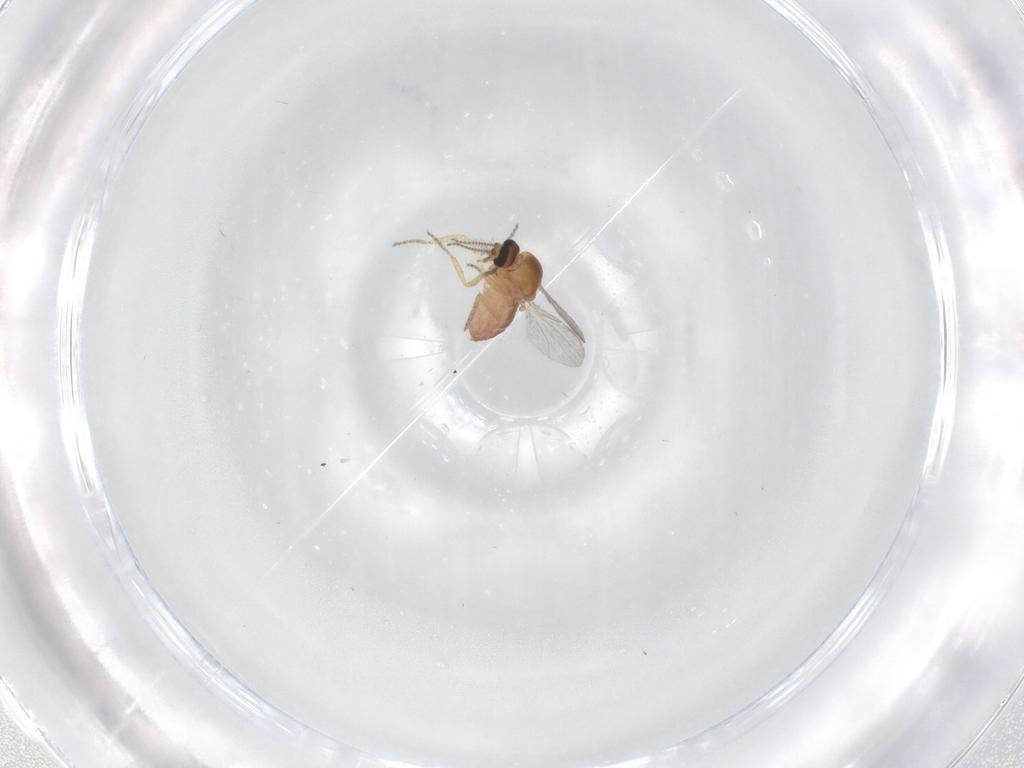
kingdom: Animalia
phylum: Arthropoda
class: Insecta
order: Diptera
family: Ceratopogonidae
